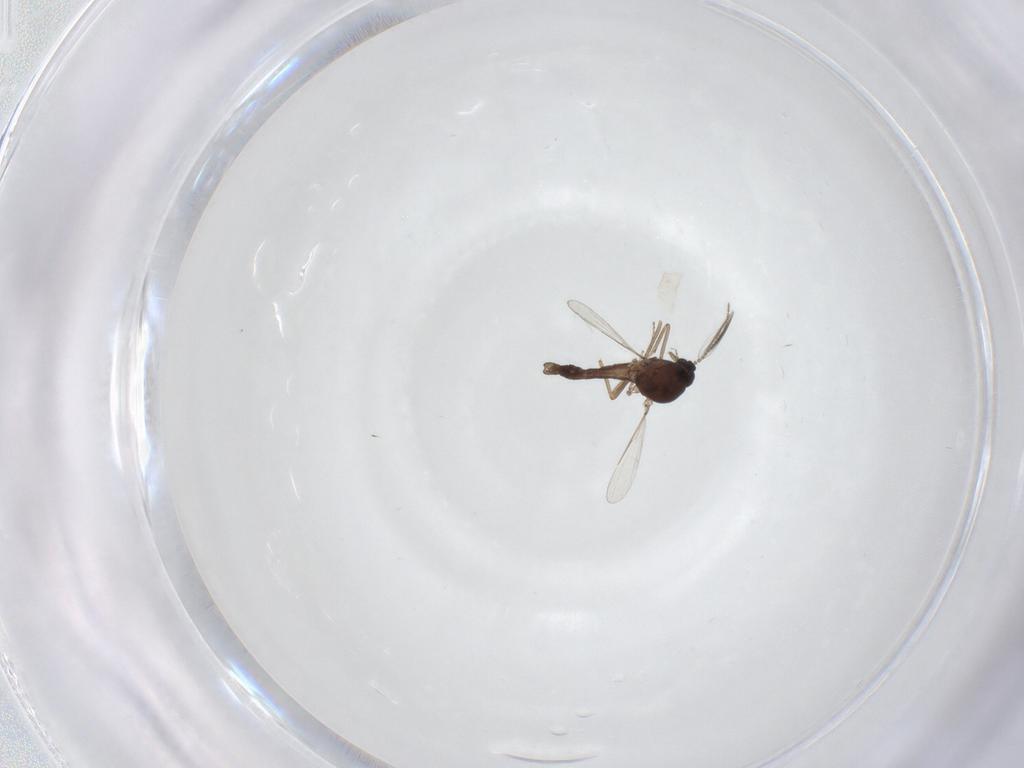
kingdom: Animalia
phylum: Arthropoda
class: Insecta
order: Diptera
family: Ceratopogonidae
